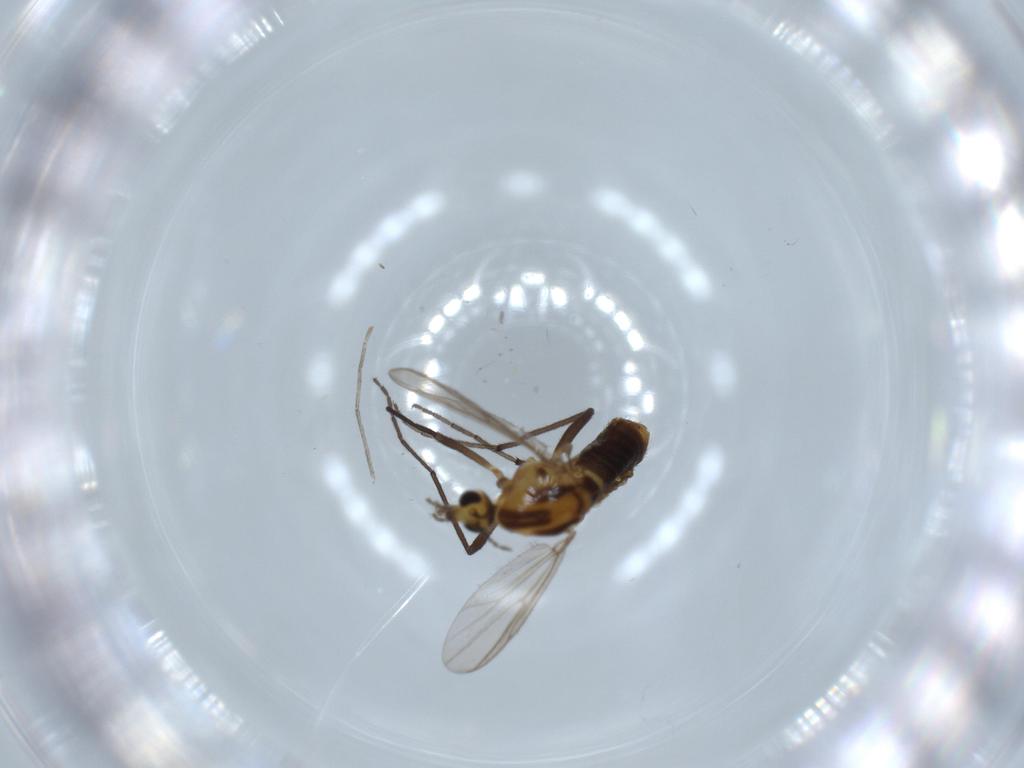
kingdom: Animalia
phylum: Arthropoda
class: Insecta
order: Diptera
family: Chironomidae
